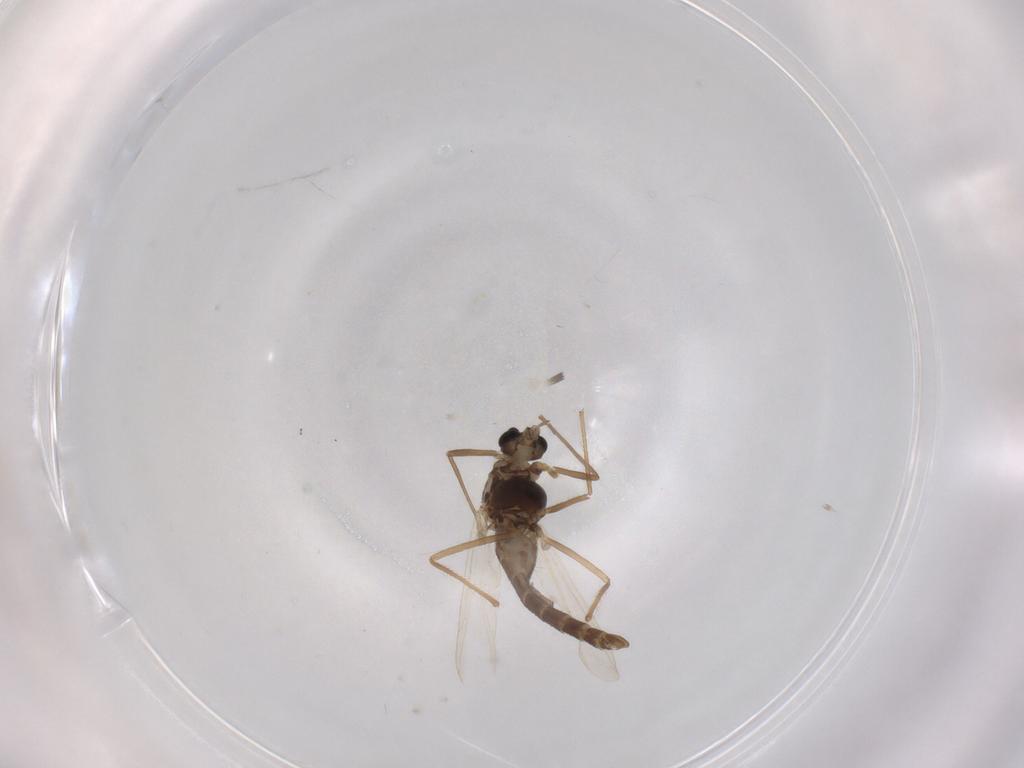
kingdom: Animalia
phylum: Arthropoda
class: Insecta
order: Diptera
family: Chironomidae
